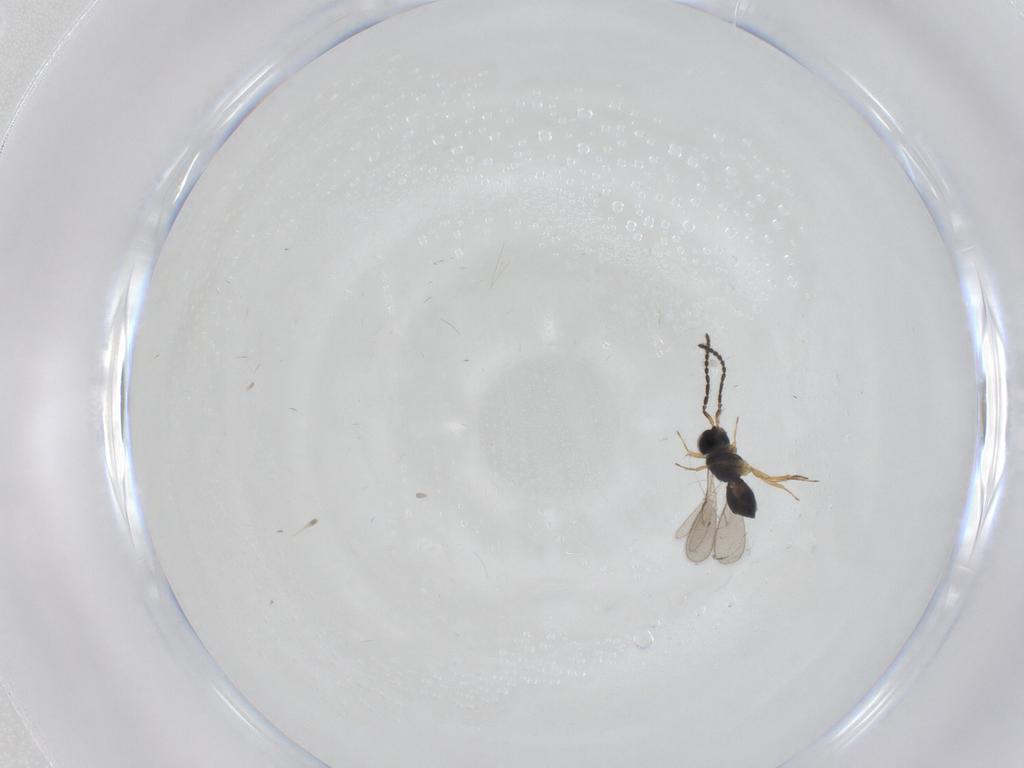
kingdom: Animalia
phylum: Arthropoda
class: Insecta
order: Hymenoptera
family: Scelionidae
